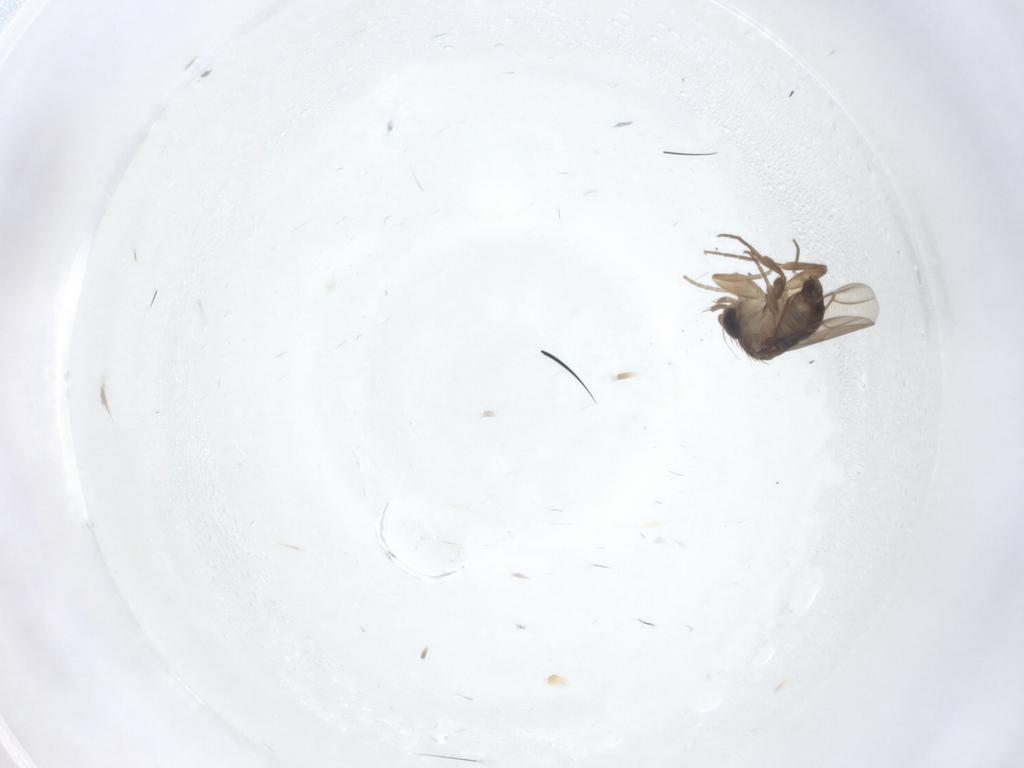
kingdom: Animalia
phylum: Arthropoda
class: Insecta
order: Diptera
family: Phoridae
